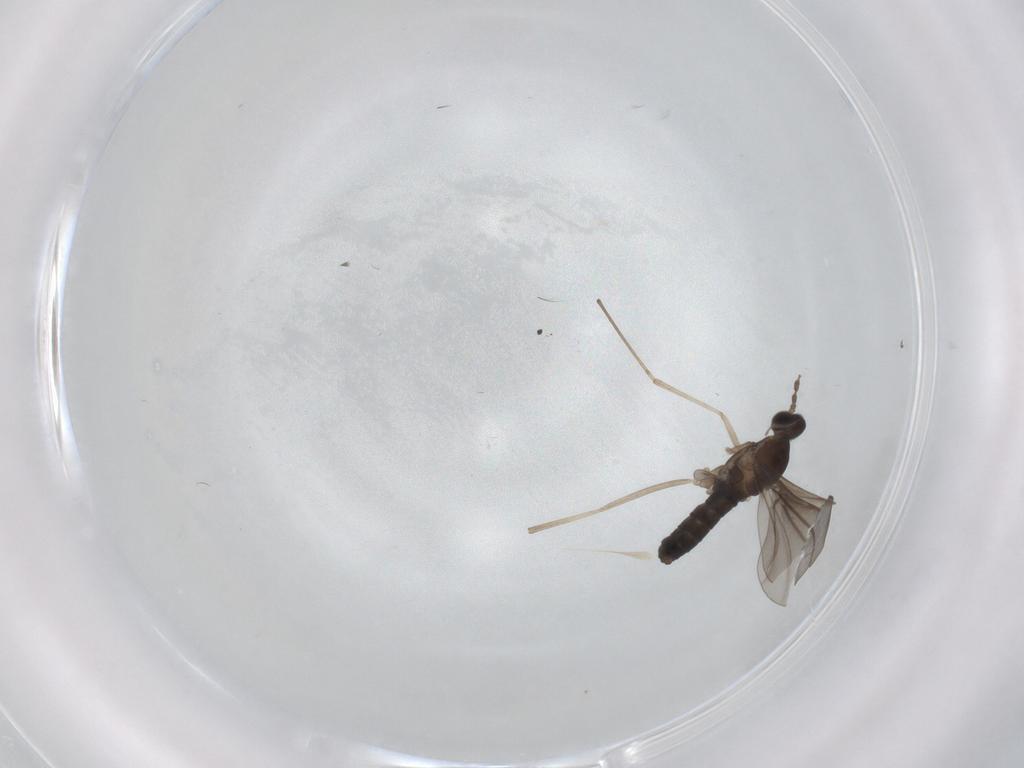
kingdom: Animalia
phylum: Arthropoda
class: Insecta
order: Diptera
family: Cecidomyiidae
